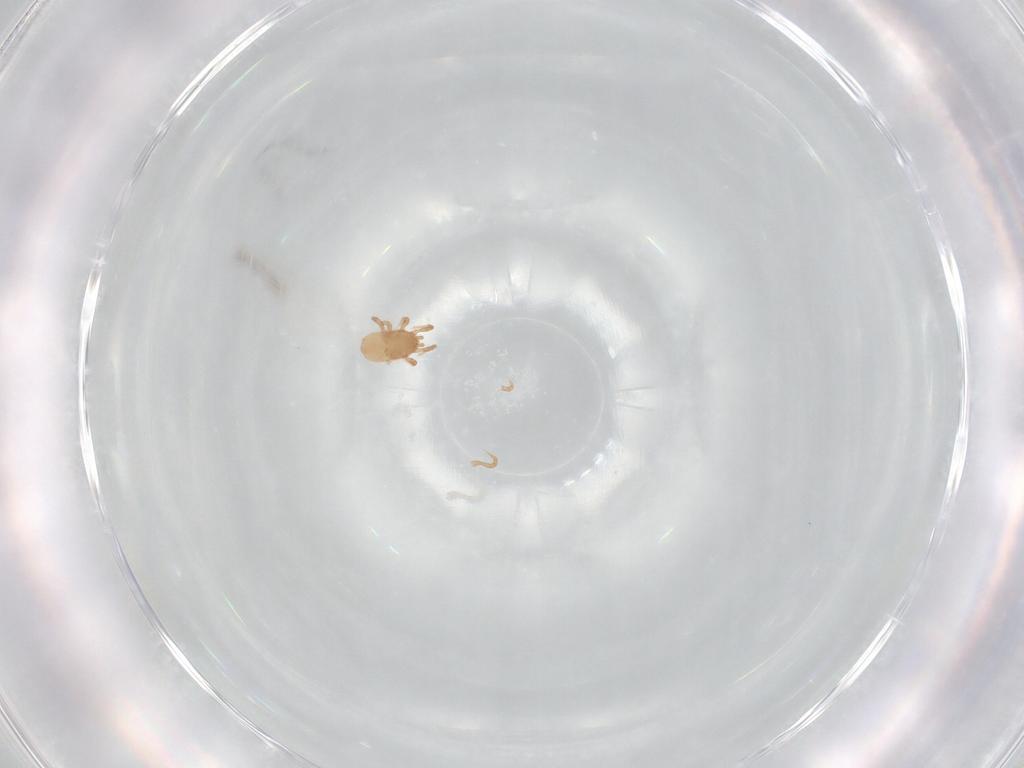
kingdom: Animalia
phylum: Arthropoda
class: Arachnida
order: Mesostigmata
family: Ascidae
